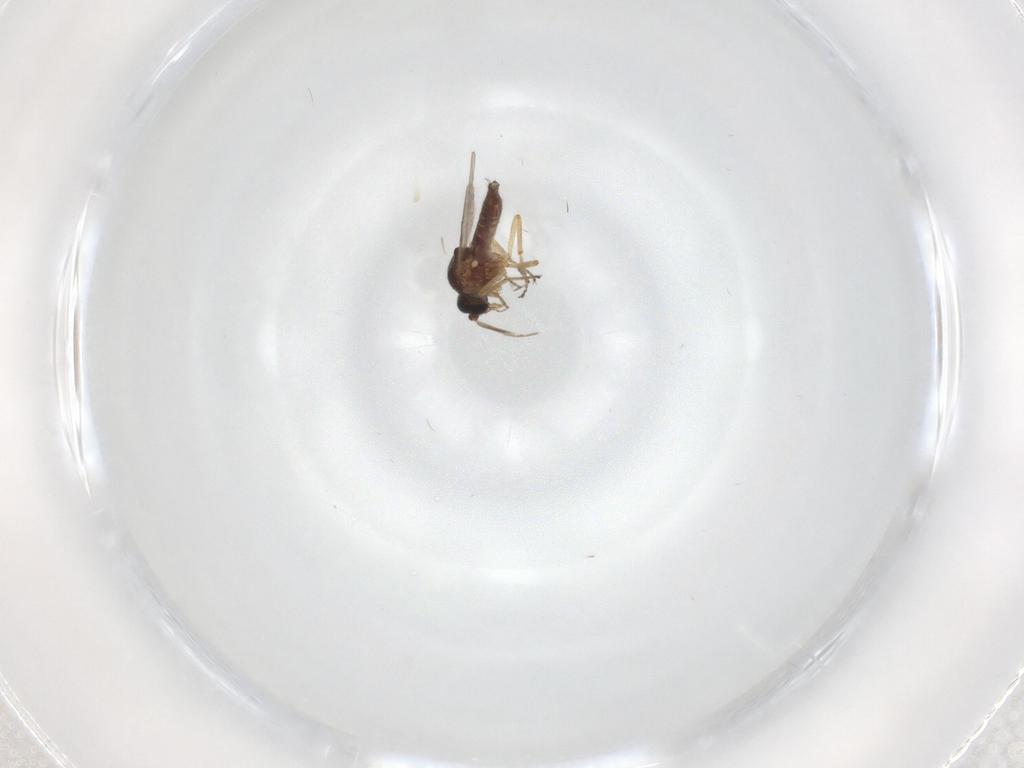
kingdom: Animalia
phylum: Arthropoda
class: Insecta
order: Diptera
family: Ceratopogonidae
